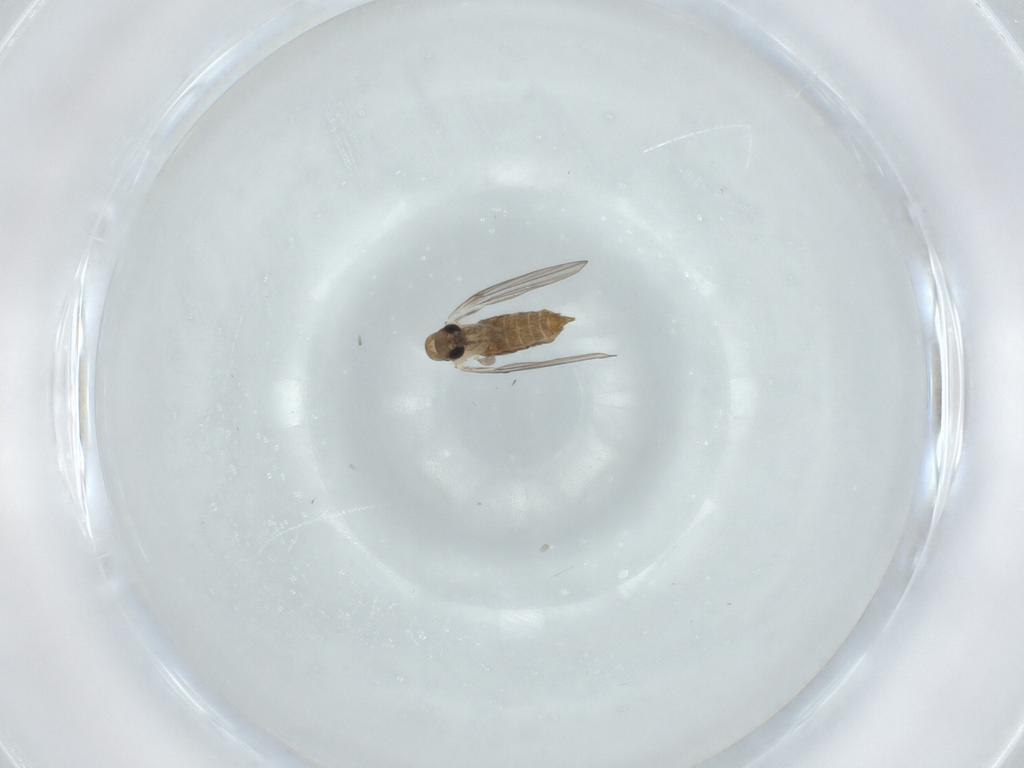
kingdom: Animalia
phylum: Arthropoda
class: Insecta
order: Diptera
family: Psychodidae
